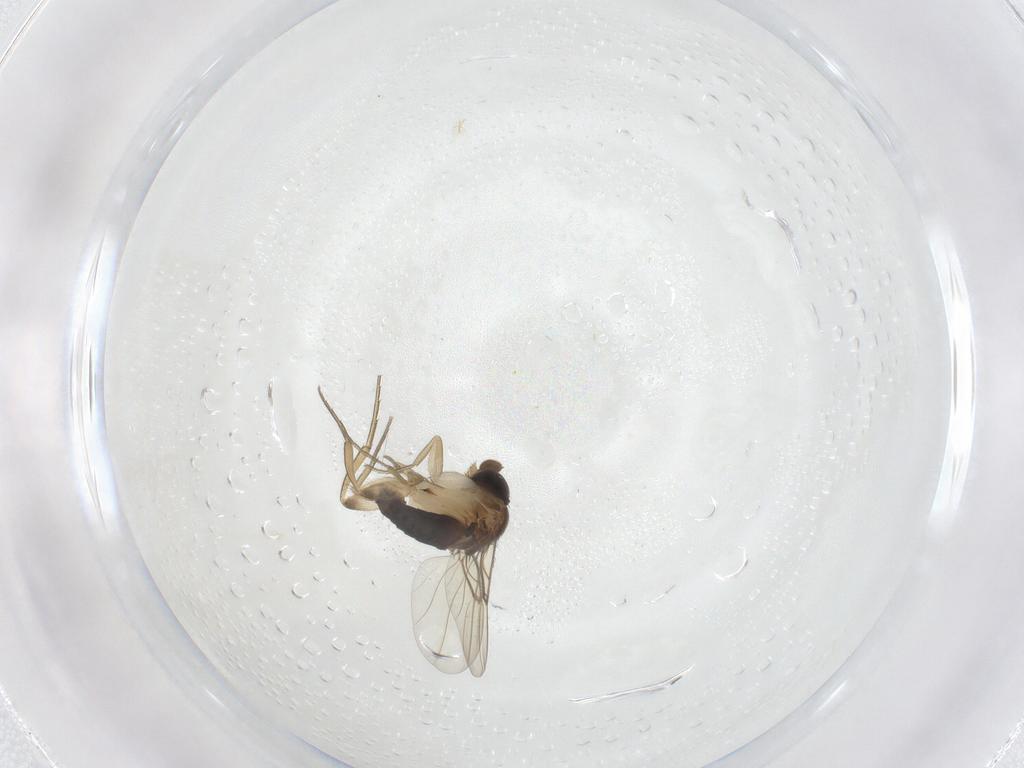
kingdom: Animalia
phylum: Arthropoda
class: Insecta
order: Diptera
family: Phoridae
